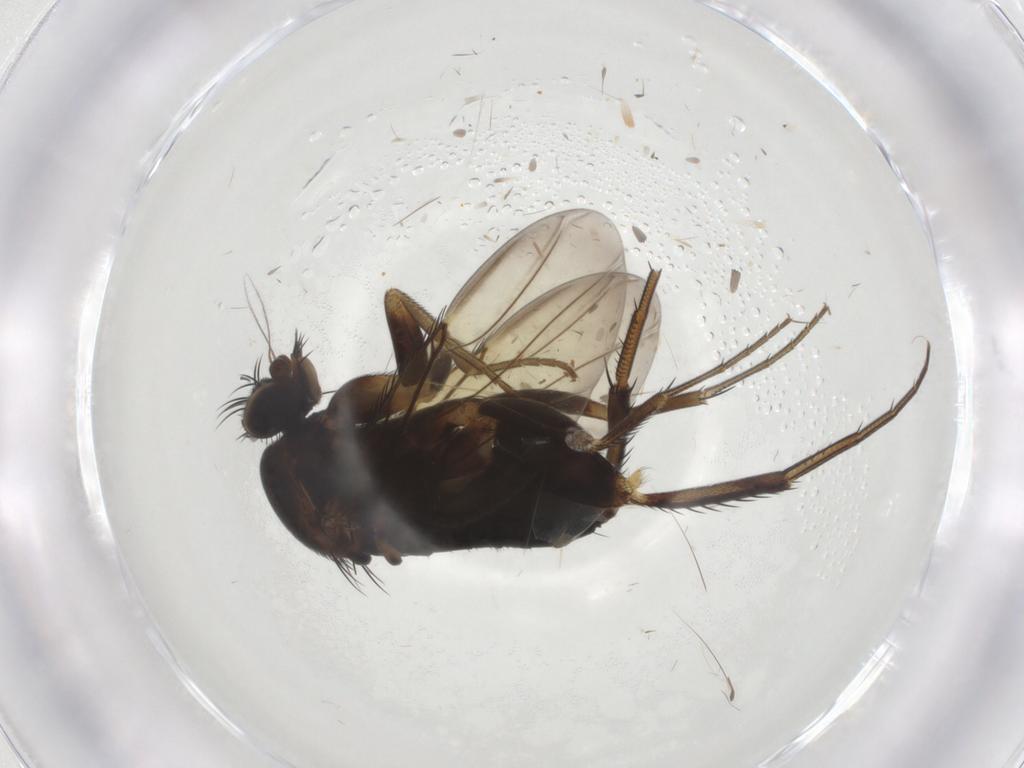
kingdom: Animalia
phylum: Arthropoda
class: Insecta
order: Diptera
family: Phoridae
